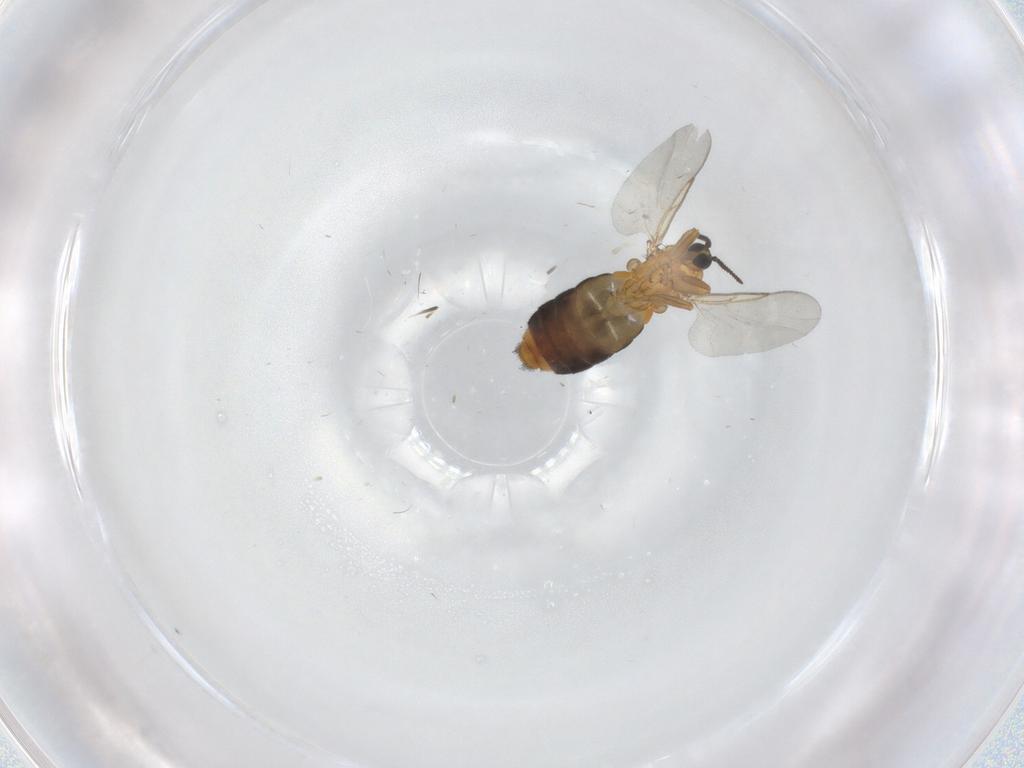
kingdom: Animalia
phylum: Arthropoda
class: Insecta
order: Diptera
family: Scatopsidae
